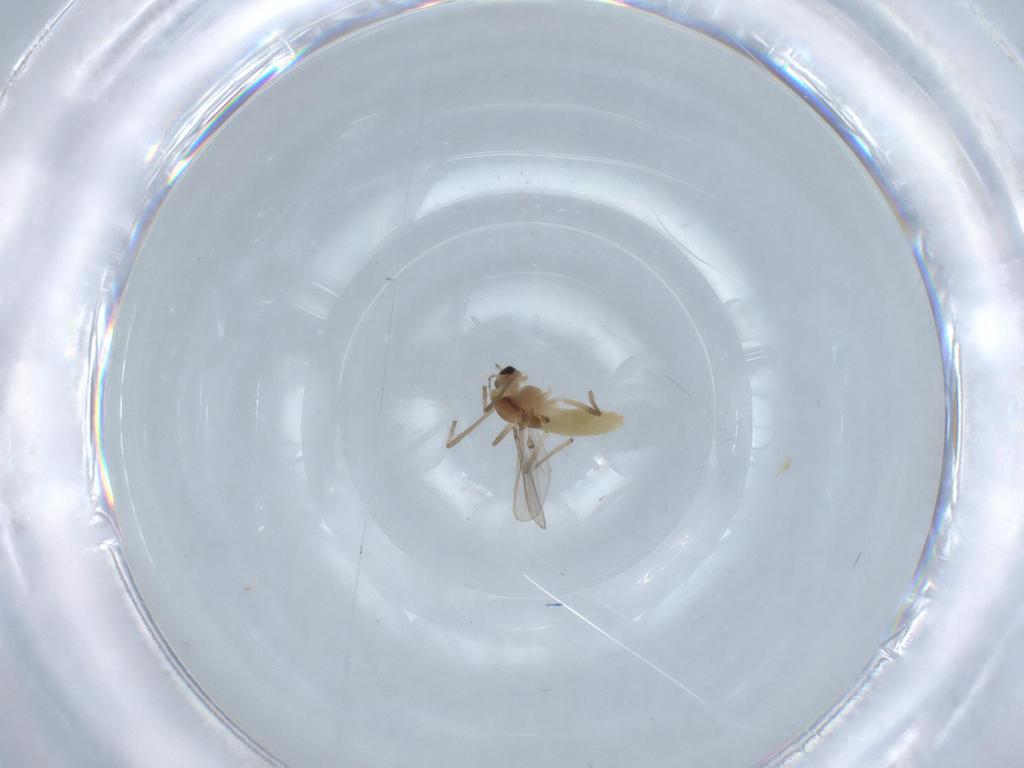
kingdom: Animalia
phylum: Arthropoda
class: Insecta
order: Diptera
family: Chironomidae
